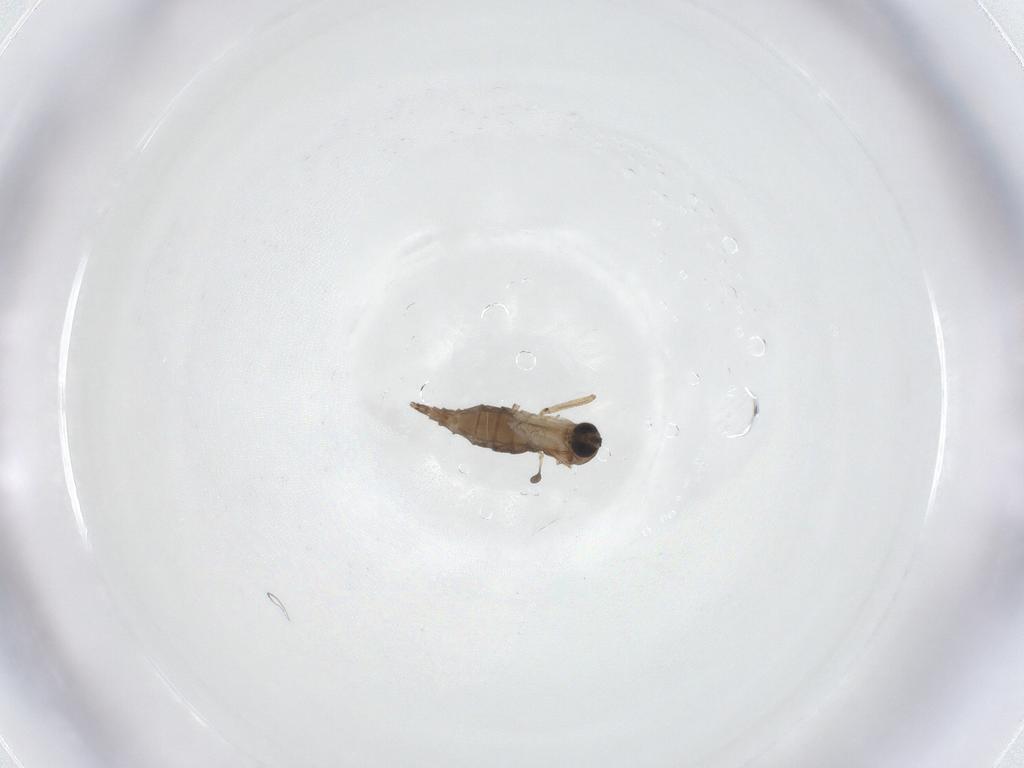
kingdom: Animalia
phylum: Arthropoda
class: Insecta
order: Diptera
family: Sciaridae
